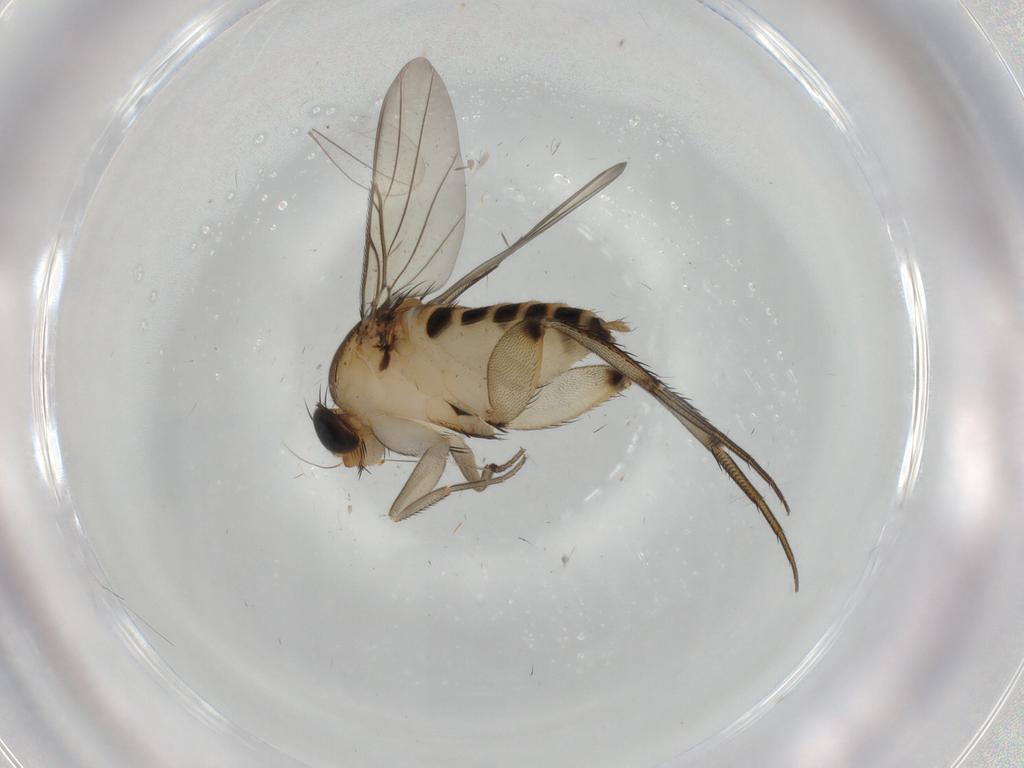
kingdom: Animalia
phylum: Arthropoda
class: Insecta
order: Diptera
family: Phoridae
